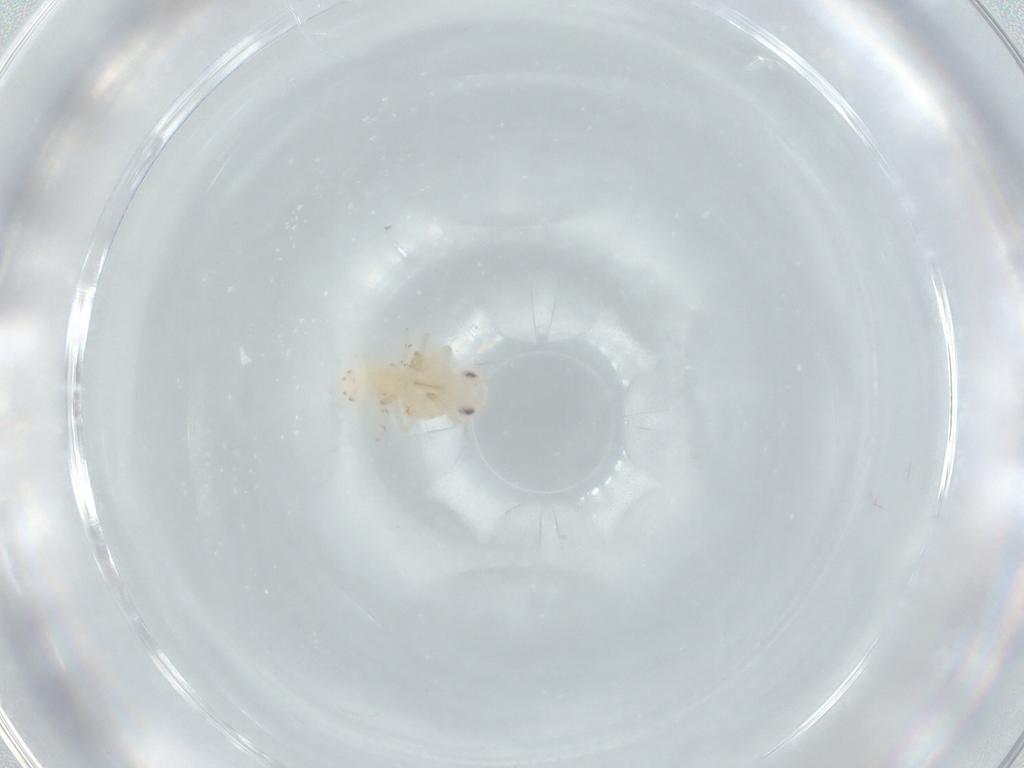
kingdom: Animalia
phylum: Arthropoda
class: Insecta
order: Hemiptera
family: Tropiduchidae
